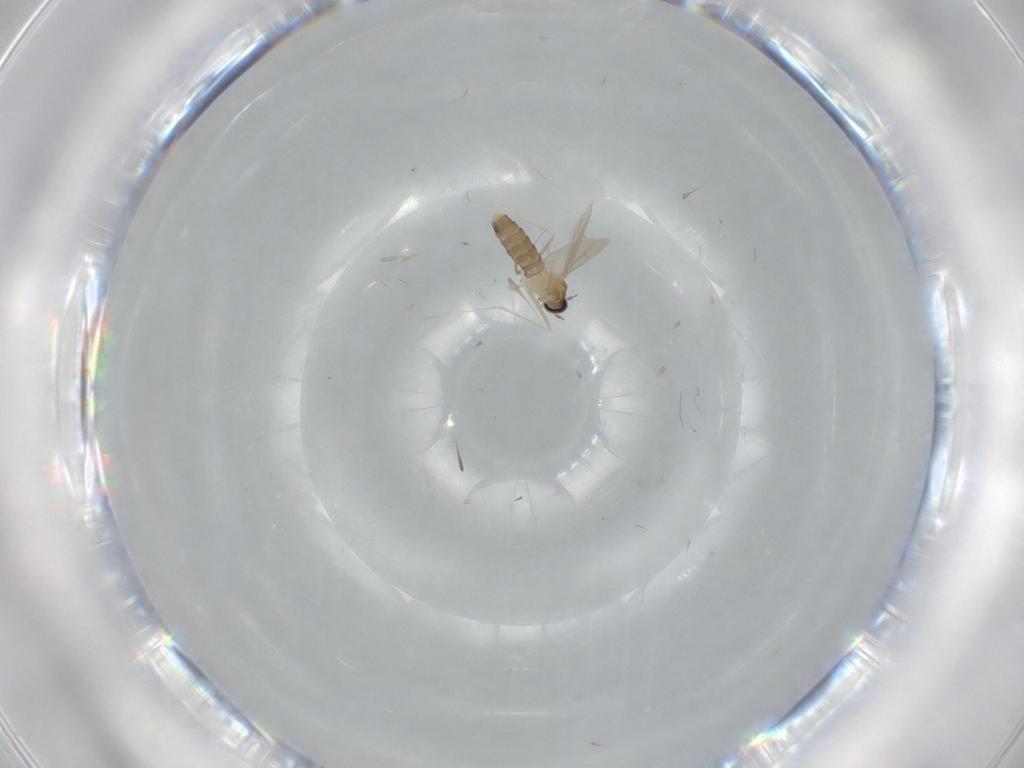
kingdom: Animalia
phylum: Arthropoda
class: Insecta
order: Diptera
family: Cecidomyiidae
